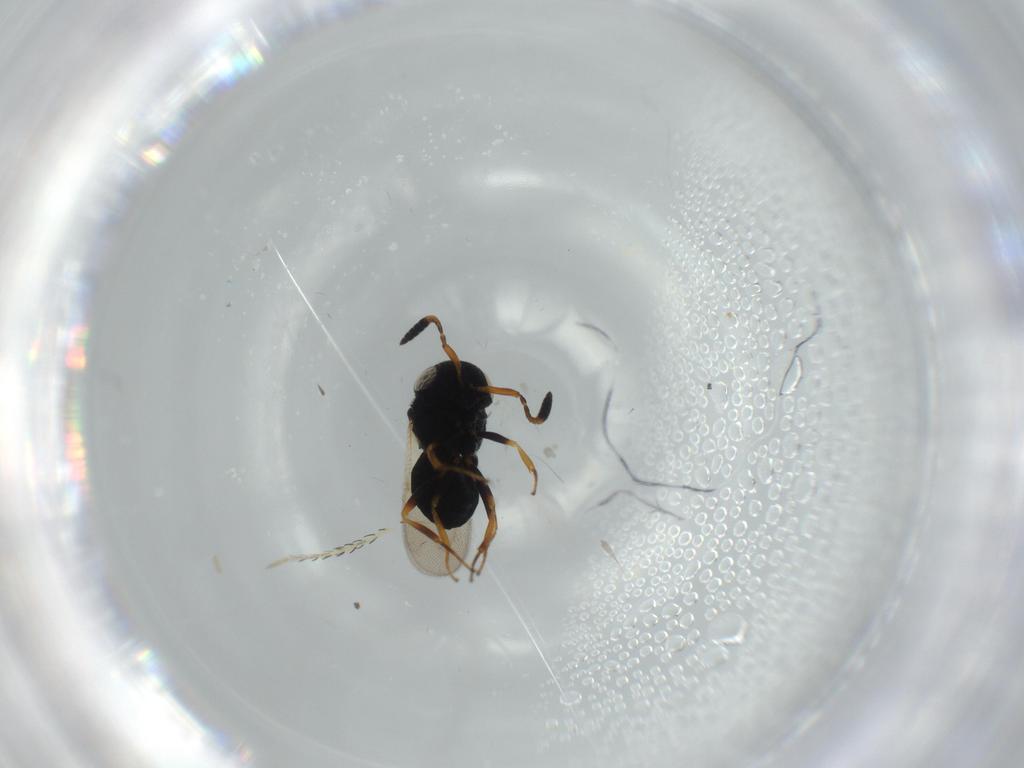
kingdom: Animalia
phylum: Arthropoda
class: Insecta
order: Hymenoptera
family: Scelionidae
